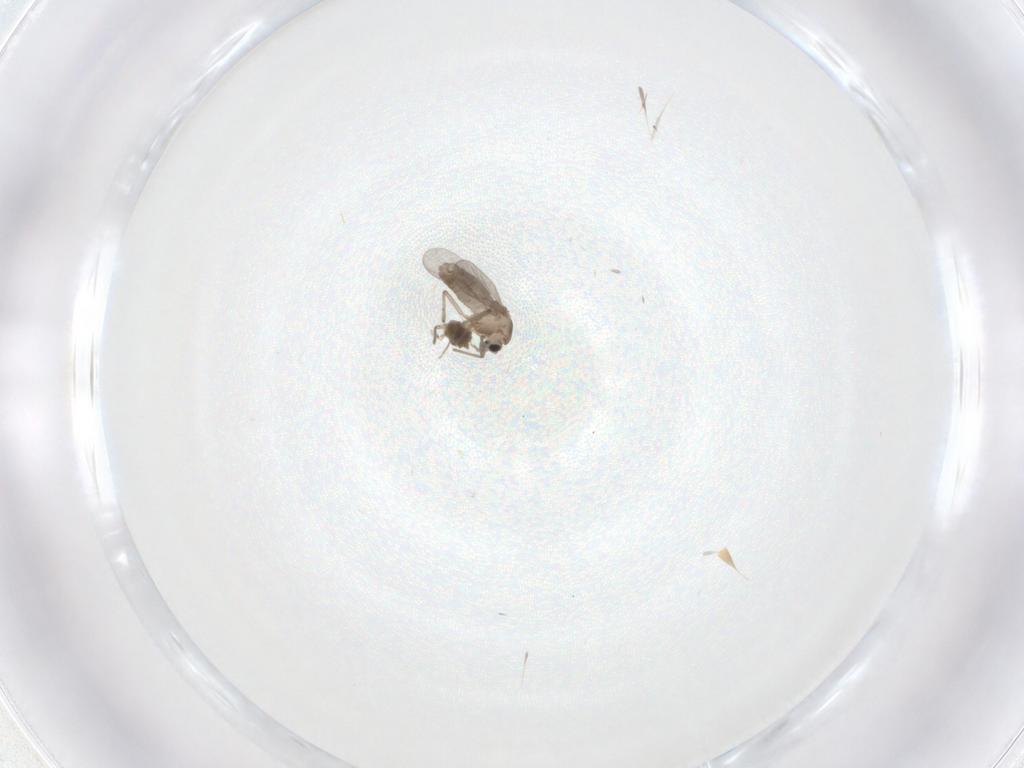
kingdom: Animalia
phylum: Arthropoda
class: Insecta
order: Diptera
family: Chironomidae
